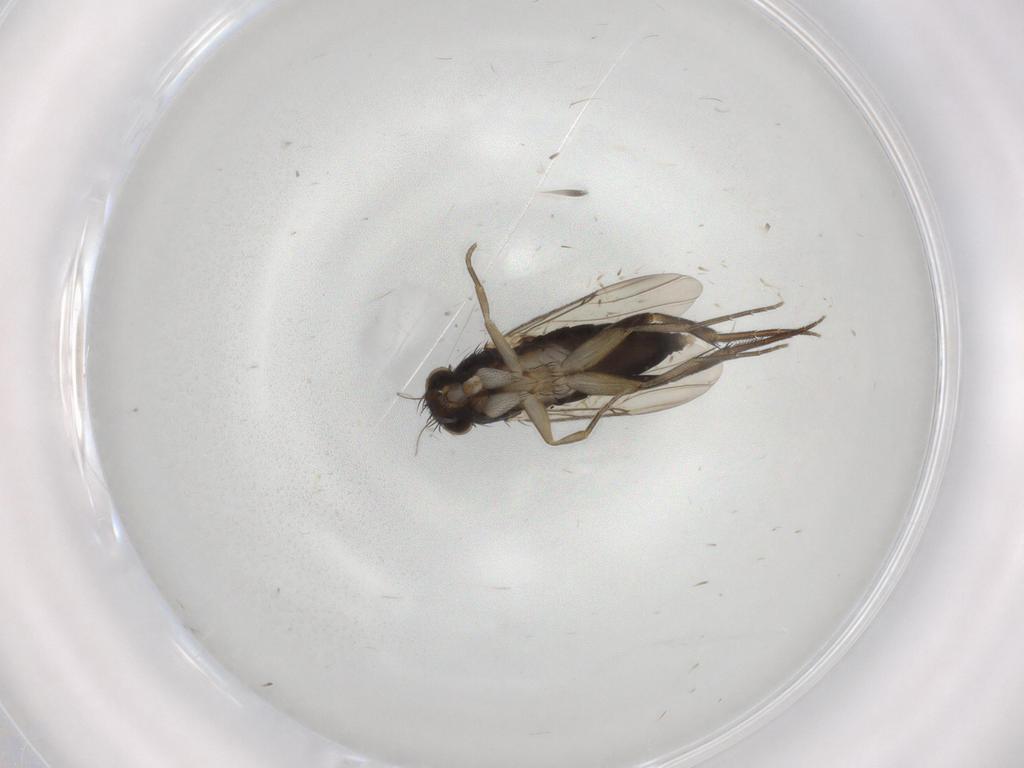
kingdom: Animalia
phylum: Arthropoda
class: Insecta
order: Diptera
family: Phoridae
